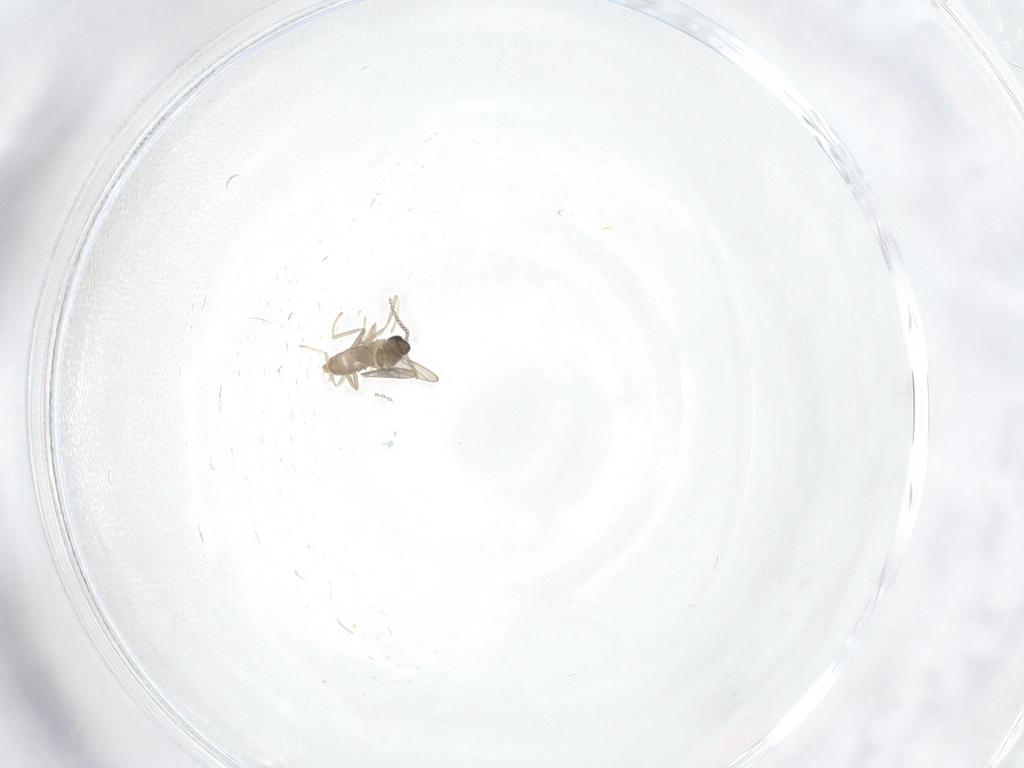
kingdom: Animalia
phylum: Arthropoda
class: Insecta
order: Diptera
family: Cecidomyiidae
